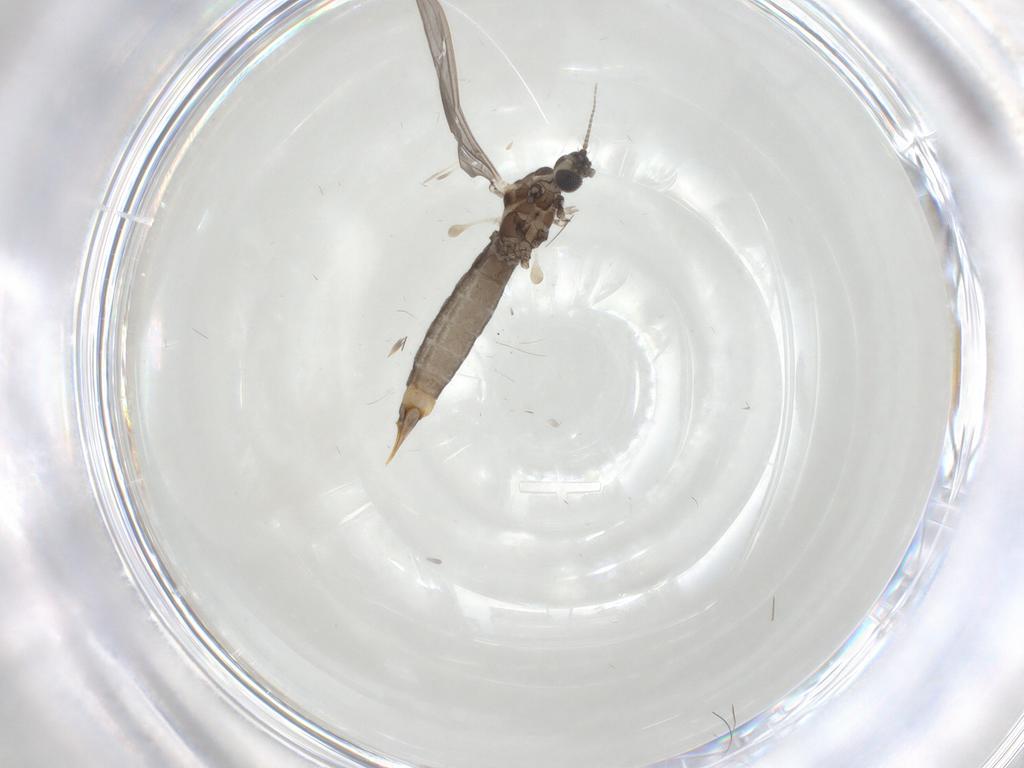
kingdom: Animalia
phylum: Arthropoda
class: Insecta
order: Diptera
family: Limoniidae
